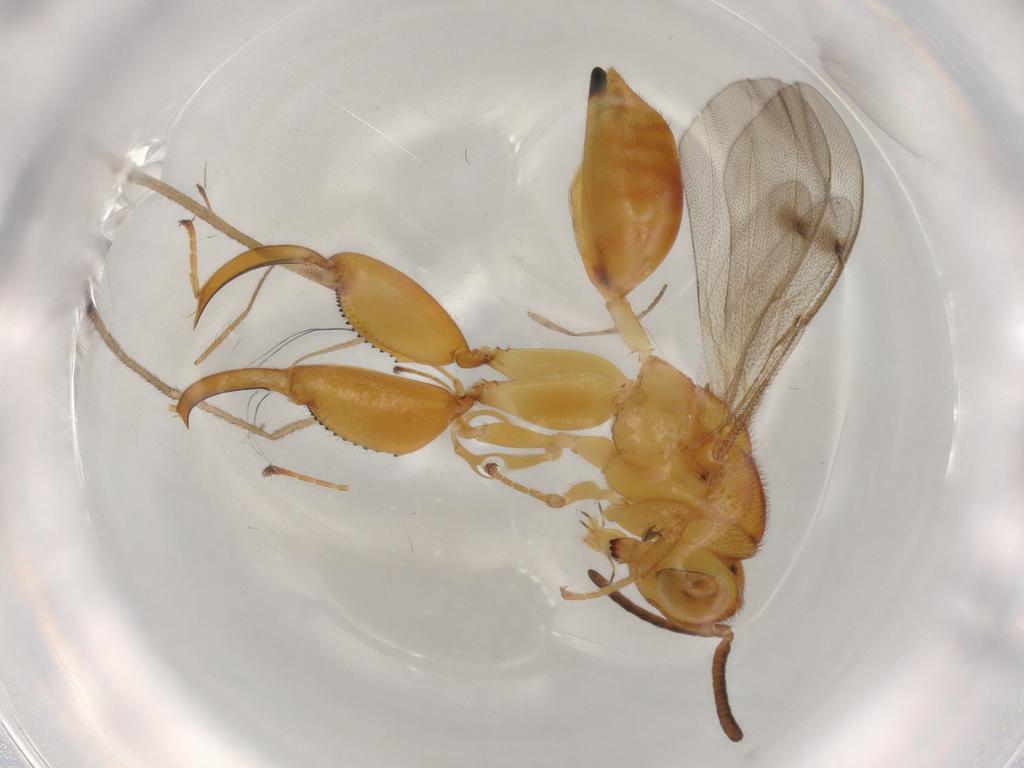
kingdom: Animalia
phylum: Arthropoda
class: Insecta
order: Hymenoptera
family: Chalcididae
